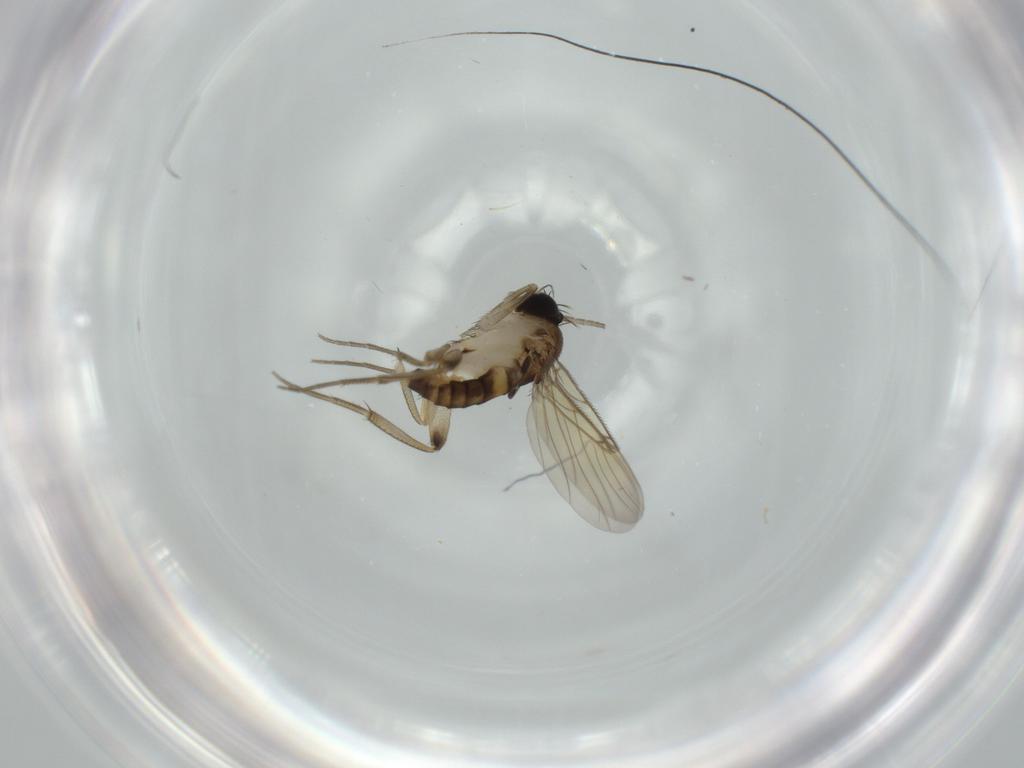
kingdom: Animalia
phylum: Arthropoda
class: Insecta
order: Diptera
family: Phoridae
